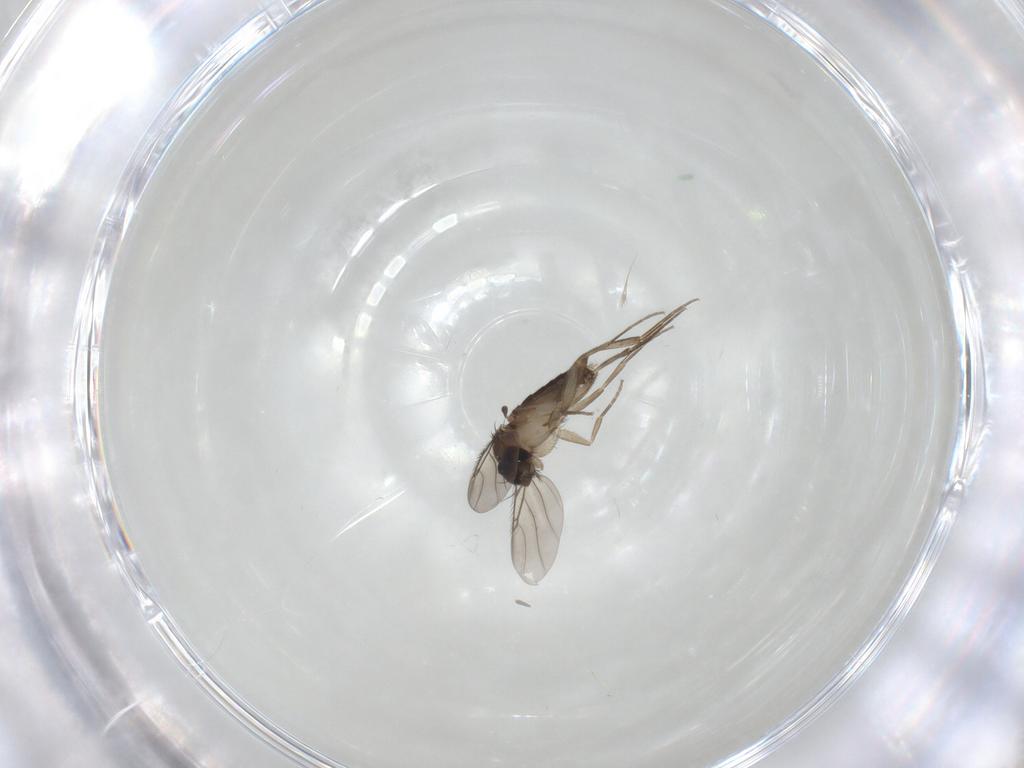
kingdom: Animalia
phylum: Arthropoda
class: Insecta
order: Diptera
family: Phoridae
